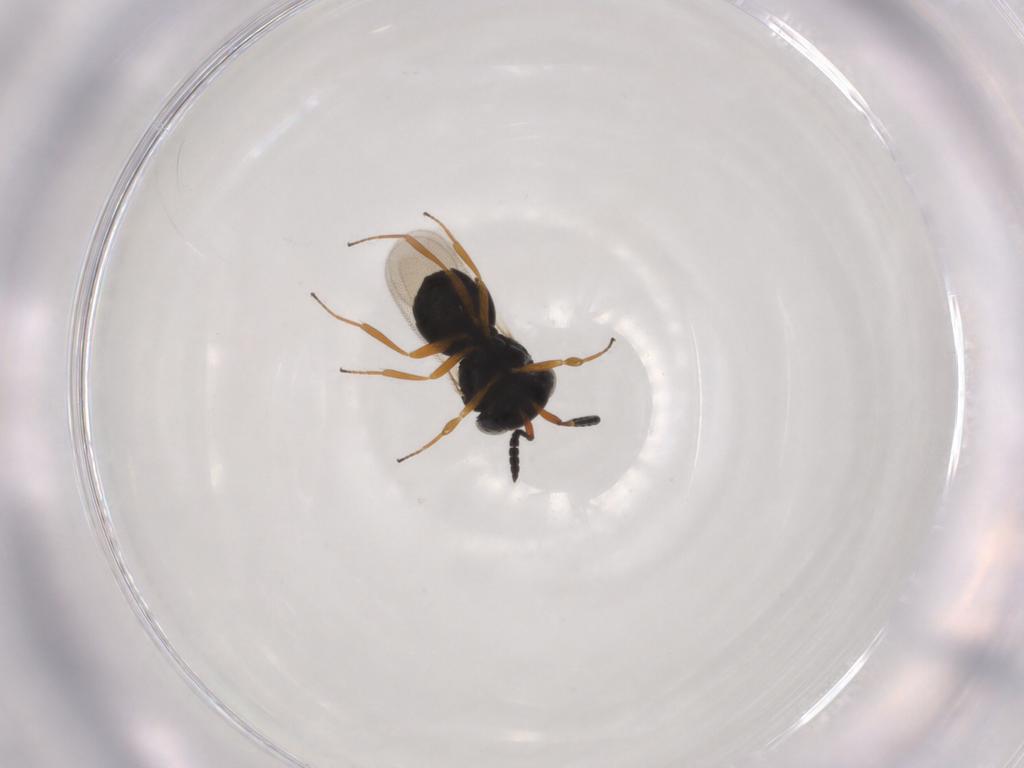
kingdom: Animalia
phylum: Arthropoda
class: Insecta
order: Hymenoptera
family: Scelionidae
